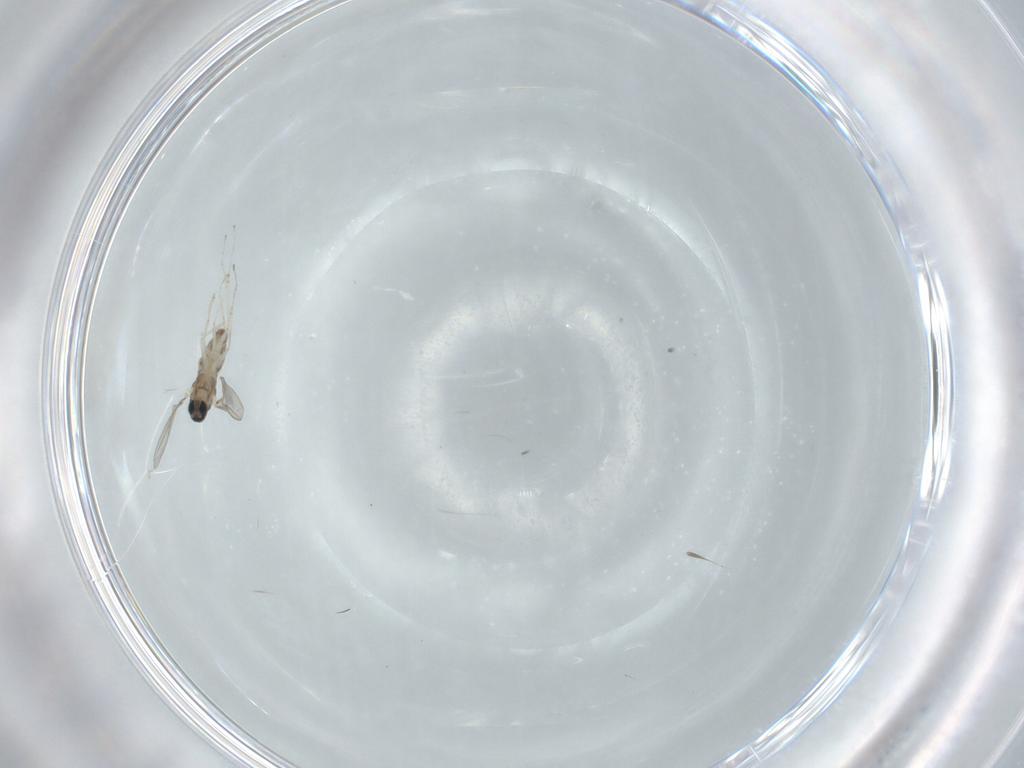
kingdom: Animalia
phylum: Arthropoda
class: Insecta
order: Diptera
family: Cecidomyiidae
